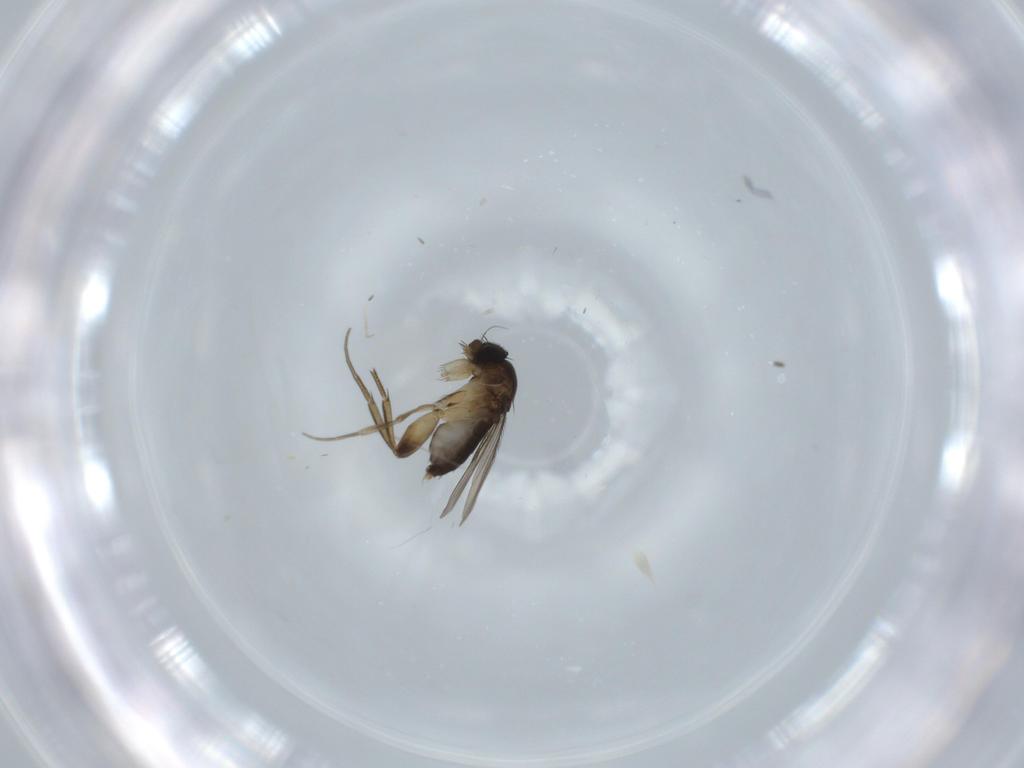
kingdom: Animalia
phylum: Arthropoda
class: Insecta
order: Diptera
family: Phoridae
